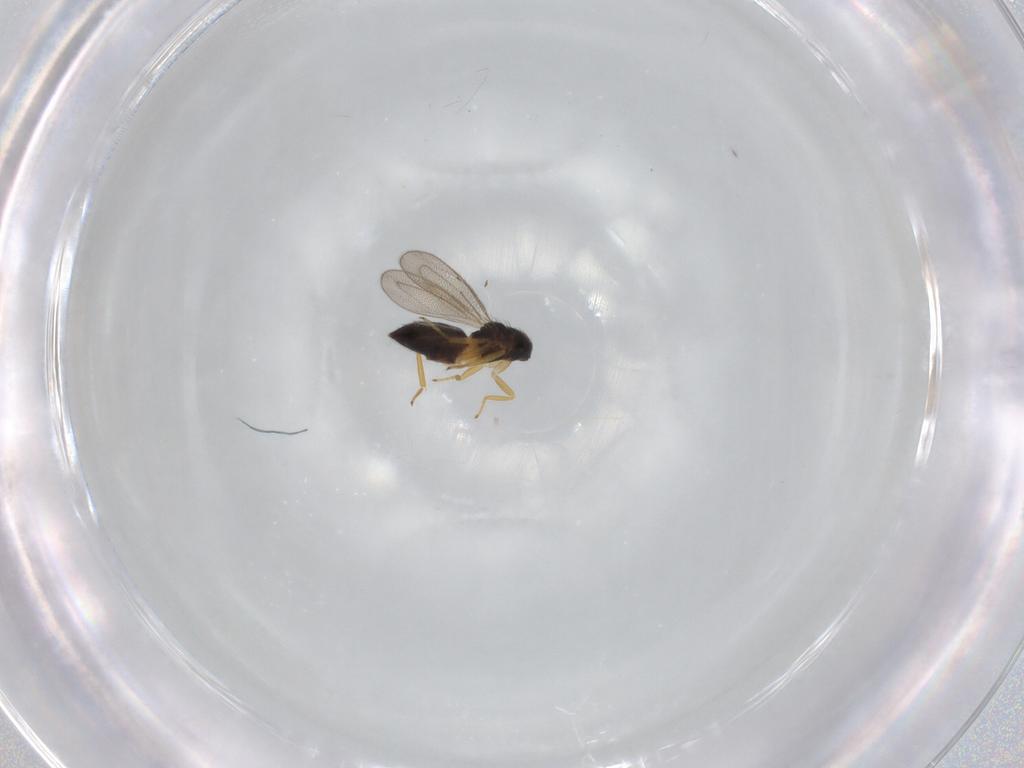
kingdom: Animalia
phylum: Arthropoda
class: Insecta
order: Hymenoptera
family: Eulophidae
